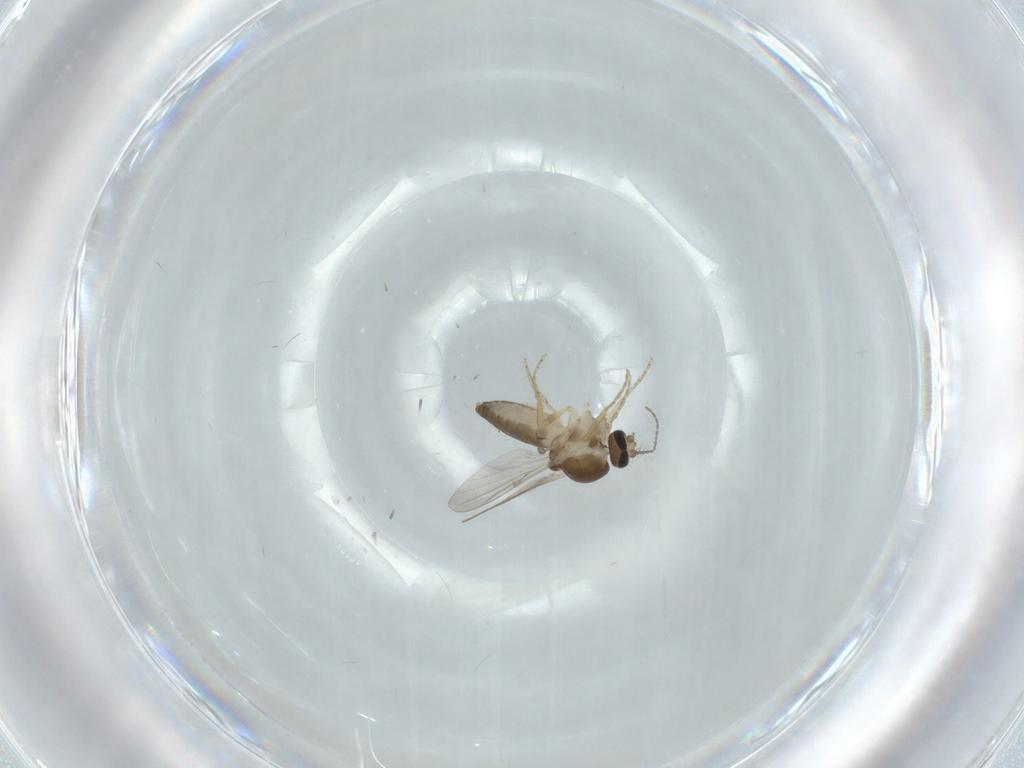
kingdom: Animalia
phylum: Arthropoda
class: Insecta
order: Diptera
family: Ceratopogonidae
